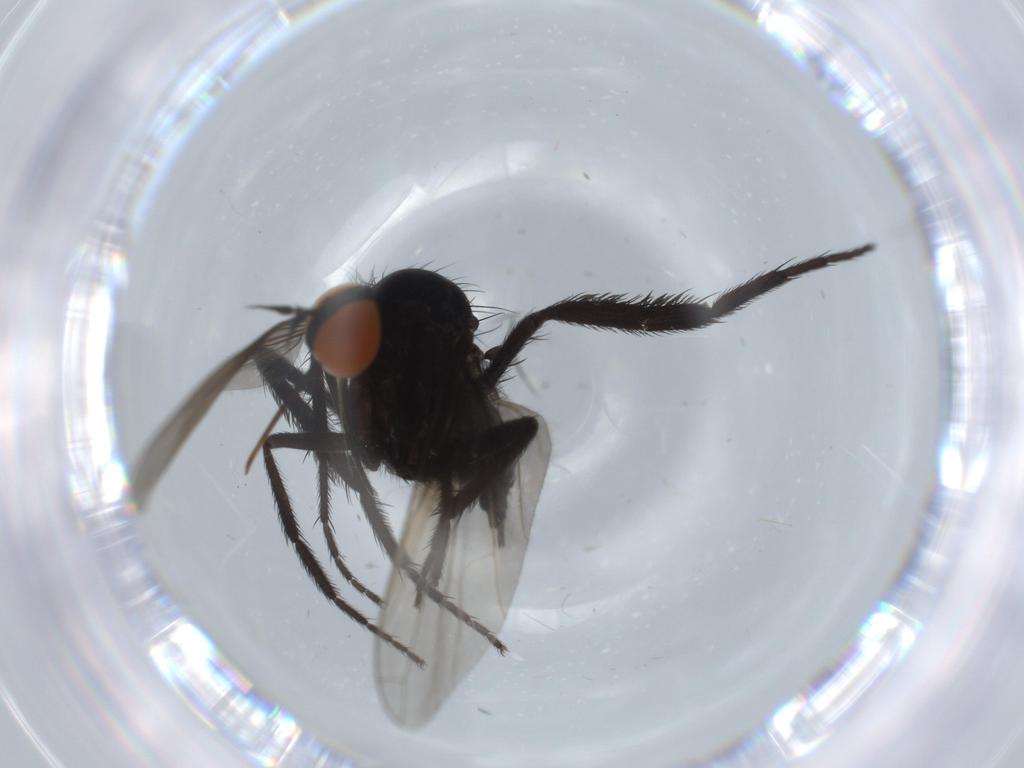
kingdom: Animalia
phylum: Arthropoda
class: Insecta
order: Diptera
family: Empididae
